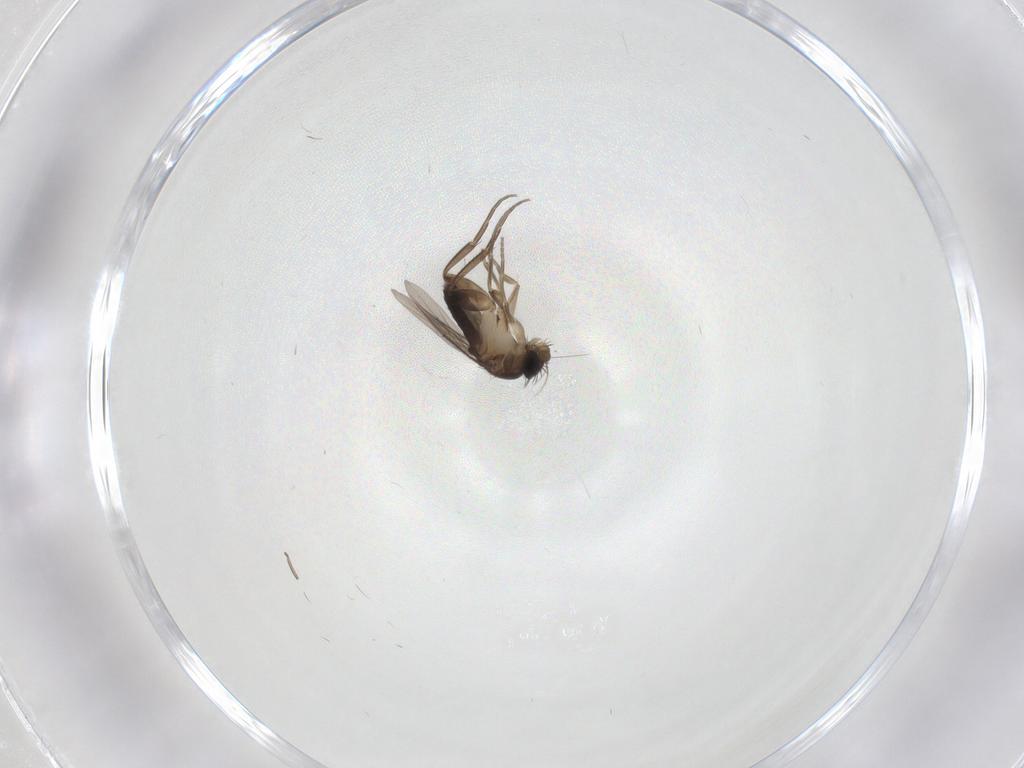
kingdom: Animalia
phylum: Arthropoda
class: Insecta
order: Diptera
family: Phoridae
